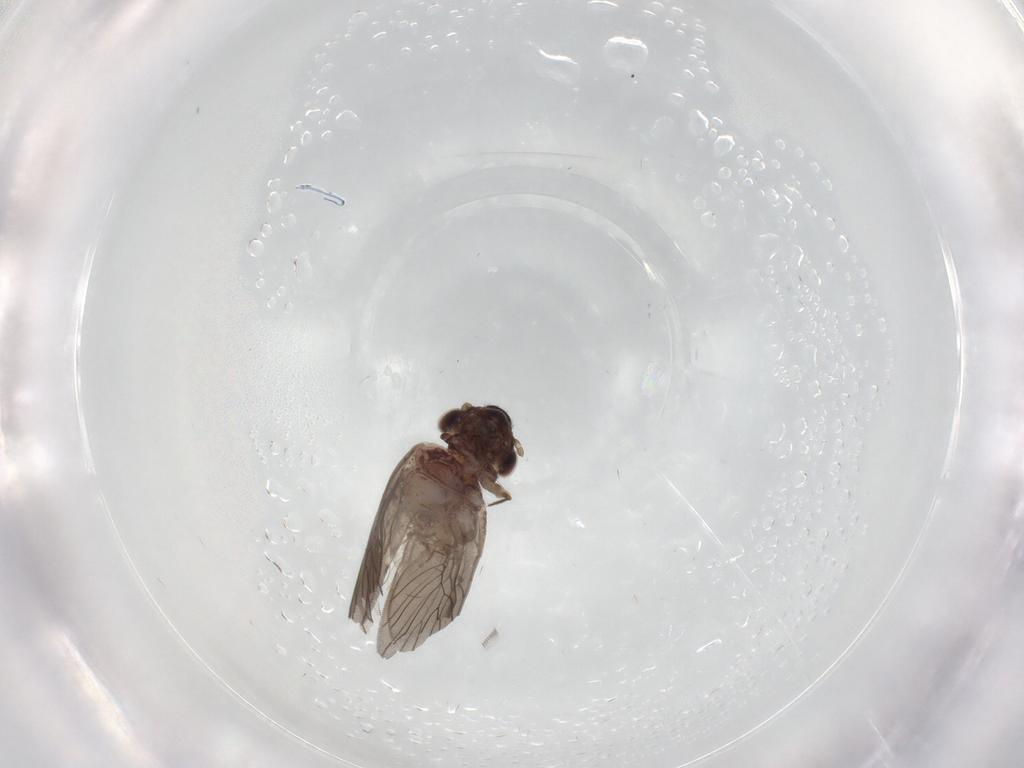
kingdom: Animalia
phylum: Arthropoda
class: Insecta
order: Psocodea
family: Lepidopsocidae
